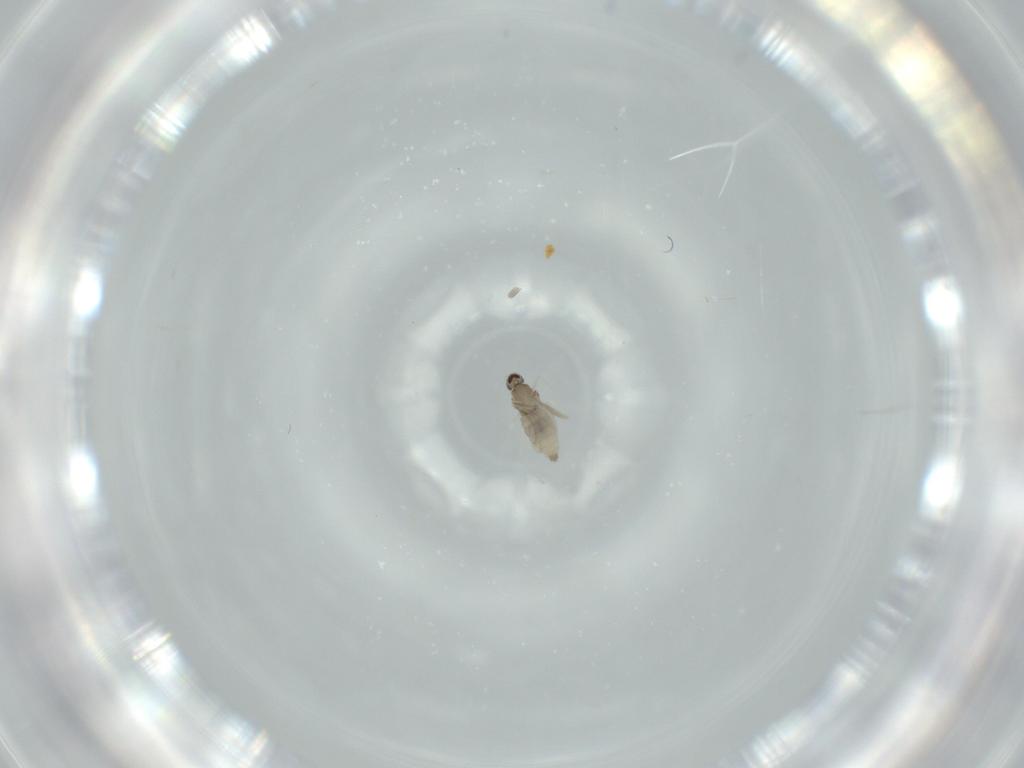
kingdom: Animalia
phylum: Arthropoda
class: Insecta
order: Diptera
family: Cecidomyiidae
